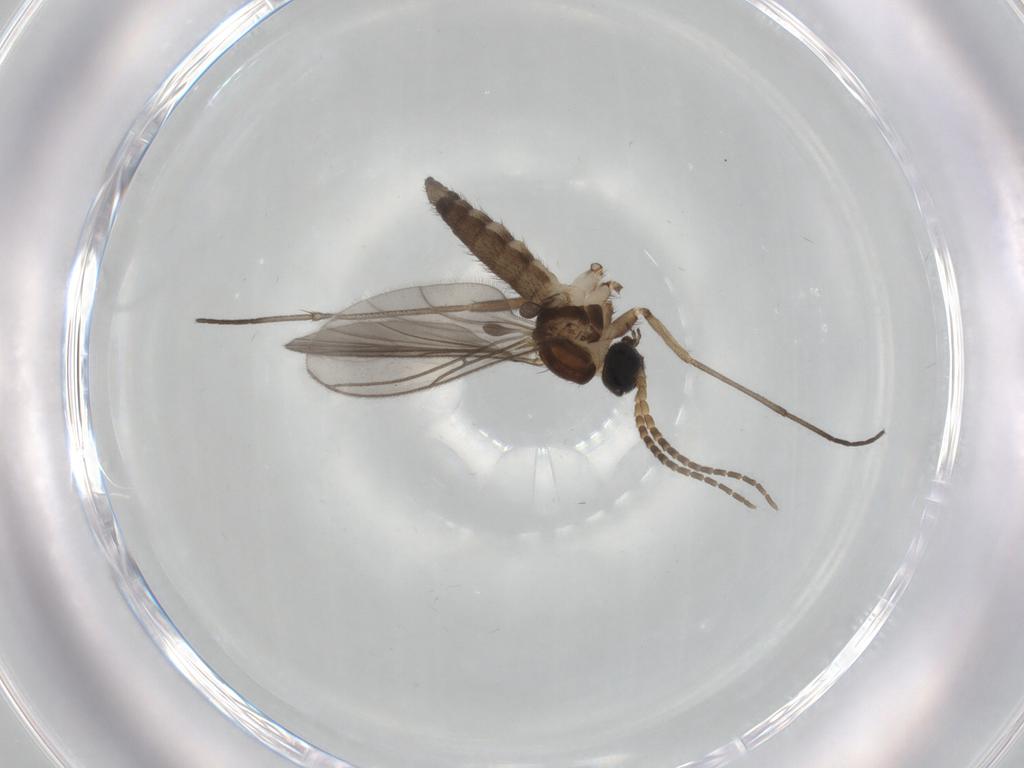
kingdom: Animalia
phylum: Arthropoda
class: Insecta
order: Diptera
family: Sciaridae
